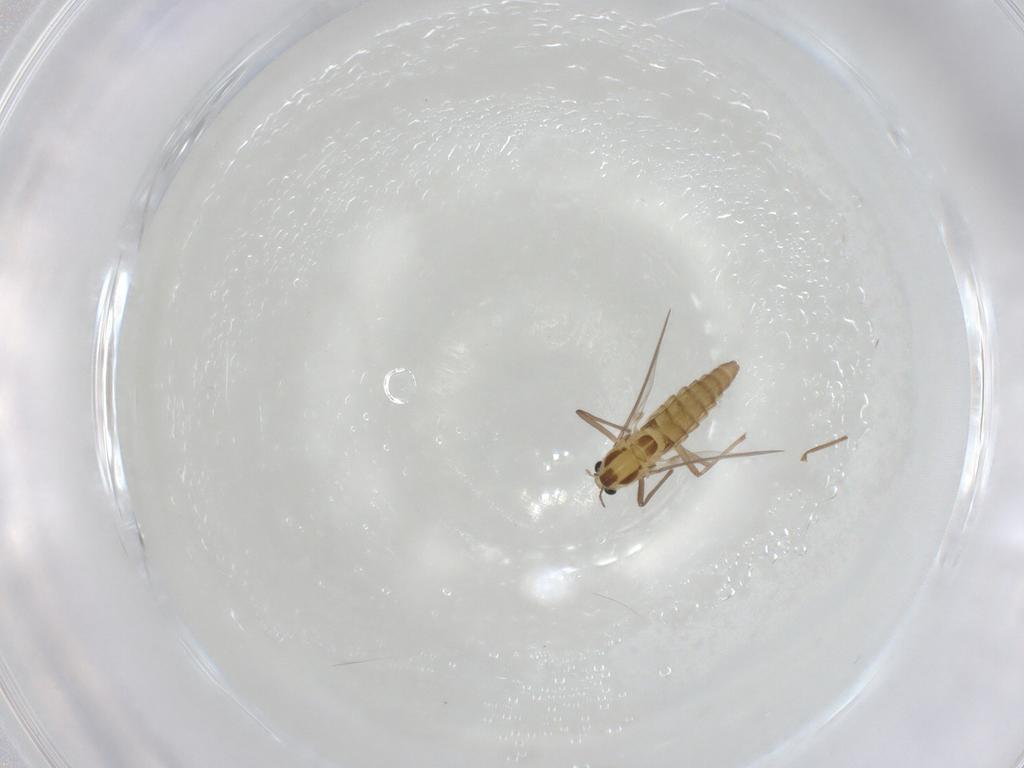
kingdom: Animalia
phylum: Arthropoda
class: Insecta
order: Diptera
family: Chironomidae
